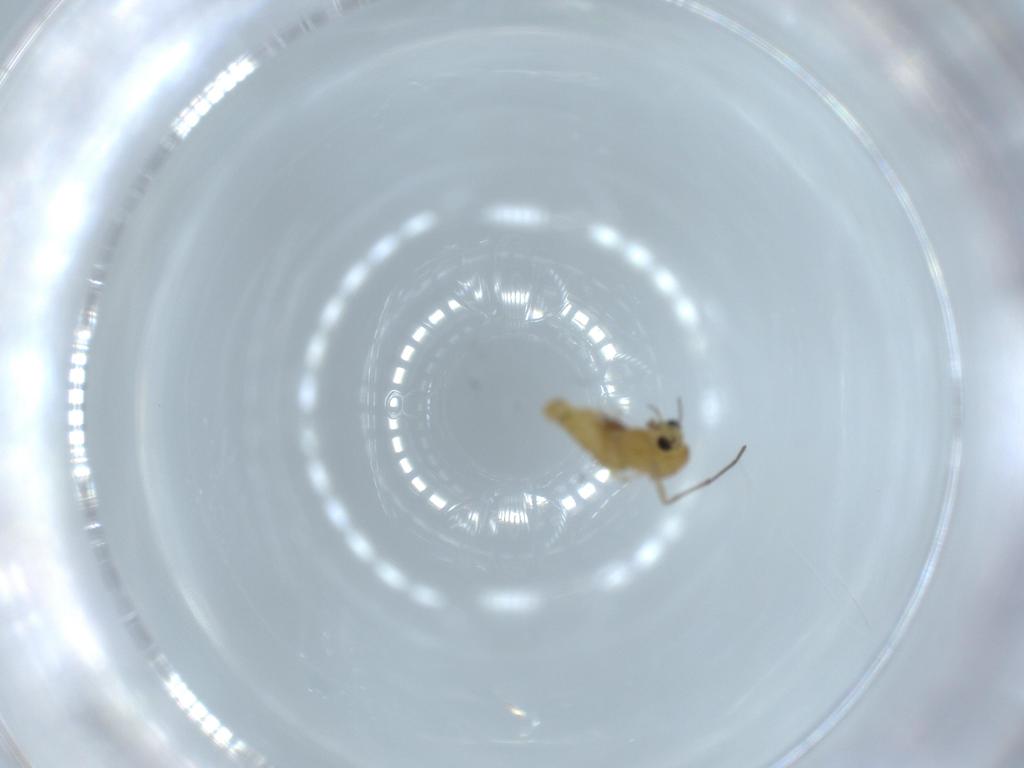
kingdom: Animalia
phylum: Arthropoda
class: Insecta
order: Diptera
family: Chironomidae
